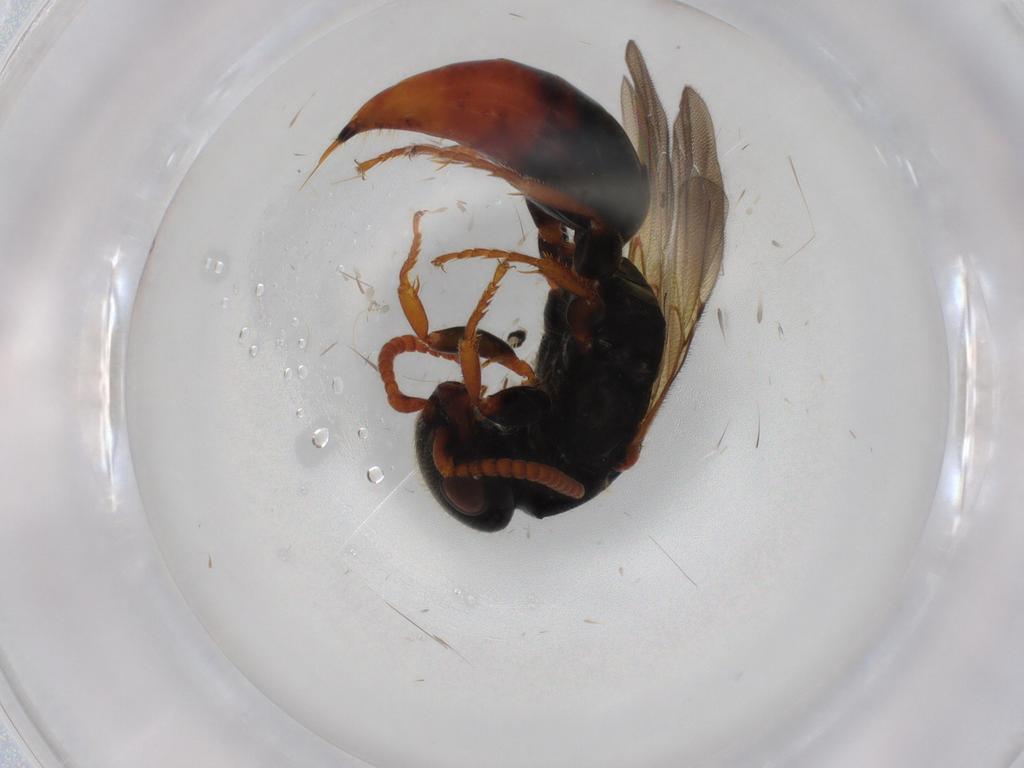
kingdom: Animalia
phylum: Arthropoda
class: Insecta
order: Hymenoptera
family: Bethylidae
